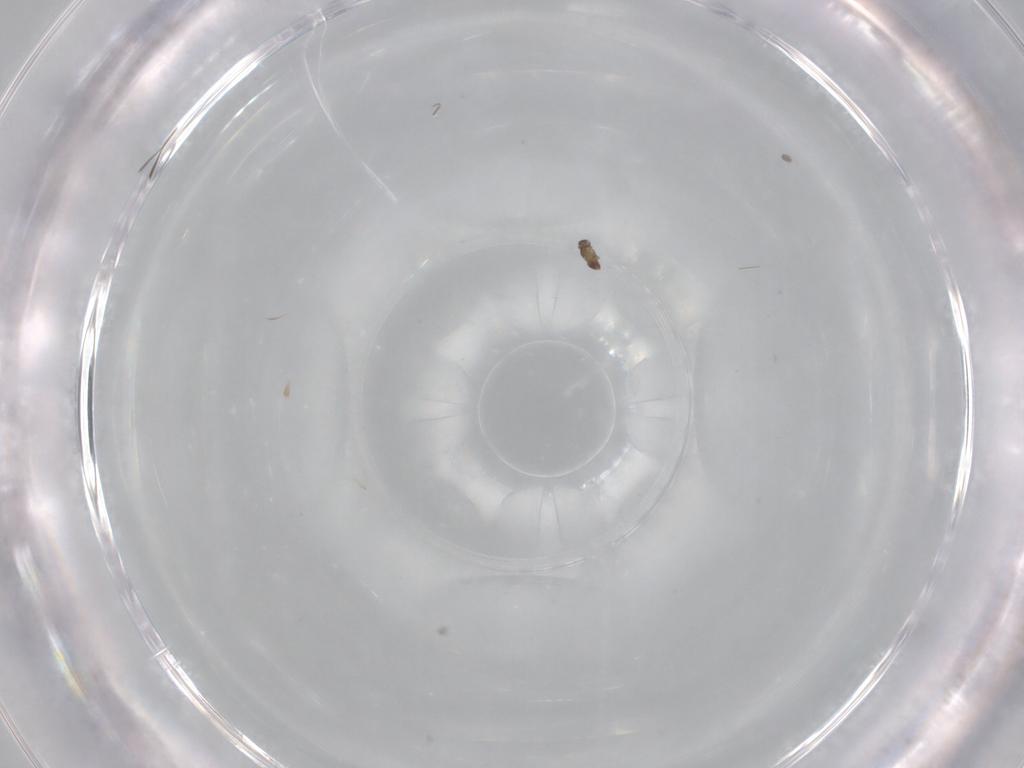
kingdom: Animalia
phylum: Arthropoda
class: Insecta
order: Hymenoptera
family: Mymaridae
